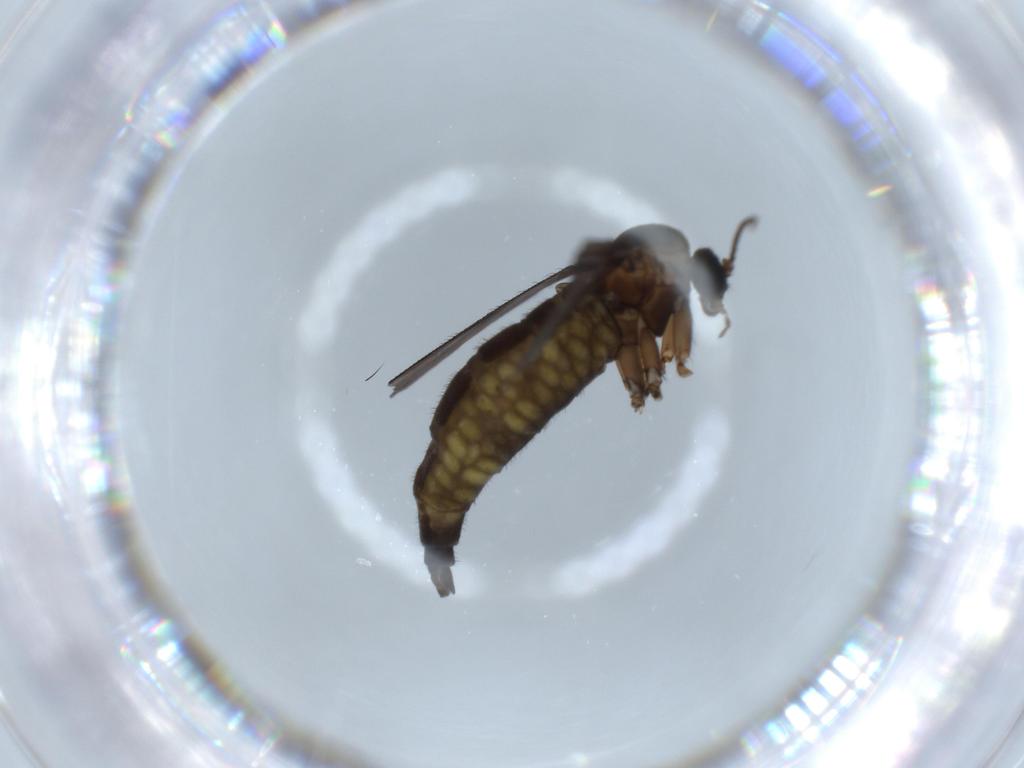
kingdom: Animalia
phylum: Arthropoda
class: Insecta
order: Diptera
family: Sciaridae
